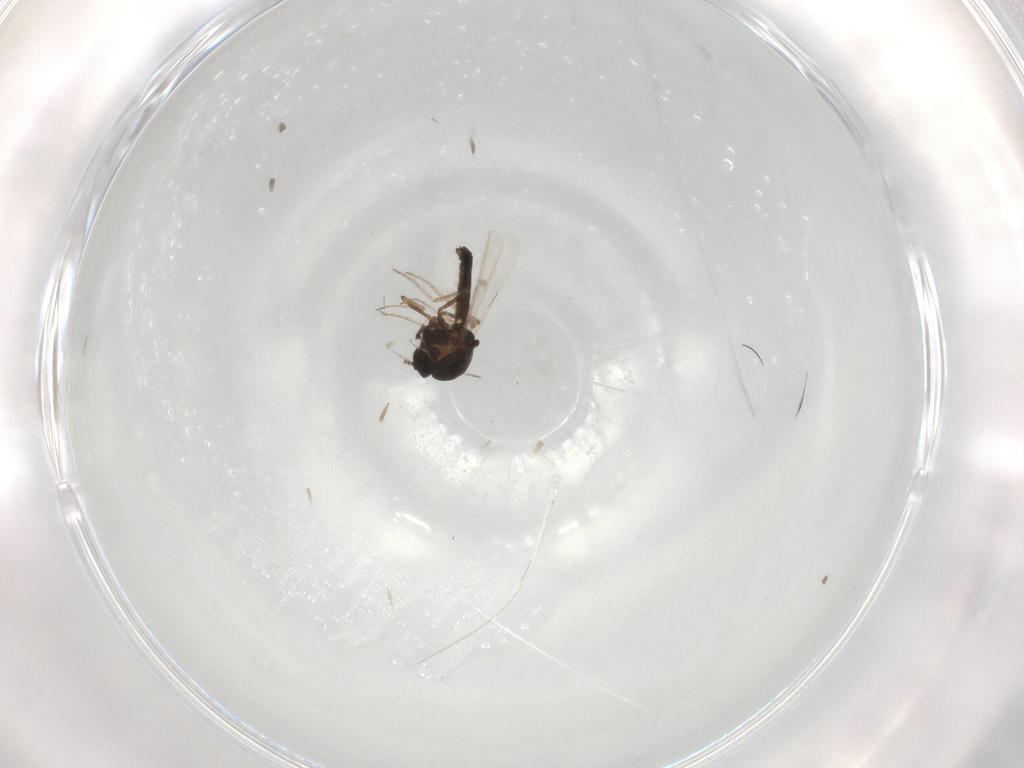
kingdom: Animalia
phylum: Arthropoda
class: Insecta
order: Diptera
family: Ceratopogonidae
